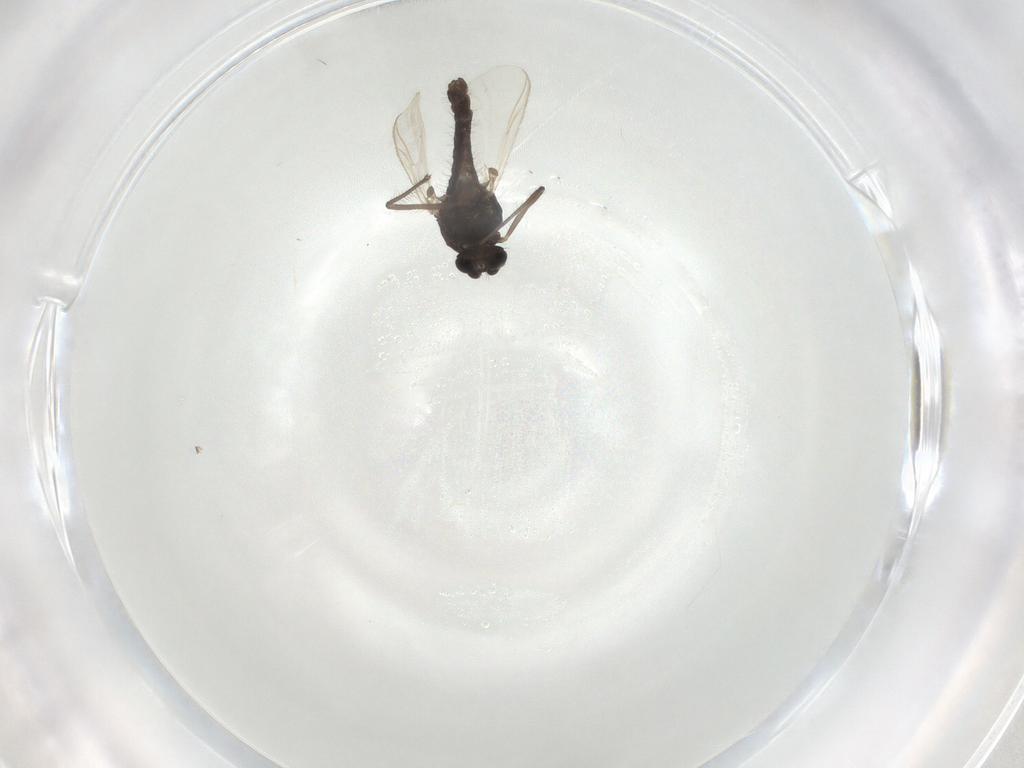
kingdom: Animalia
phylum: Arthropoda
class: Insecta
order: Diptera
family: Chironomidae
